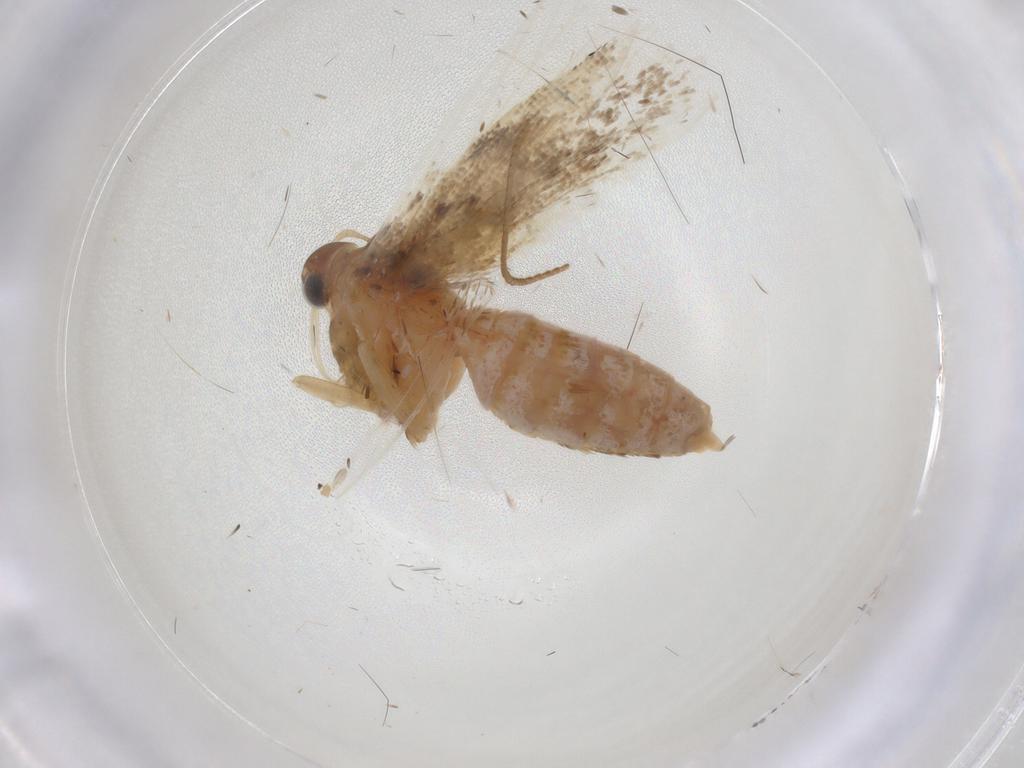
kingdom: Animalia
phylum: Arthropoda
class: Insecta
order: Lepidoptera
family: Gelechiidae
